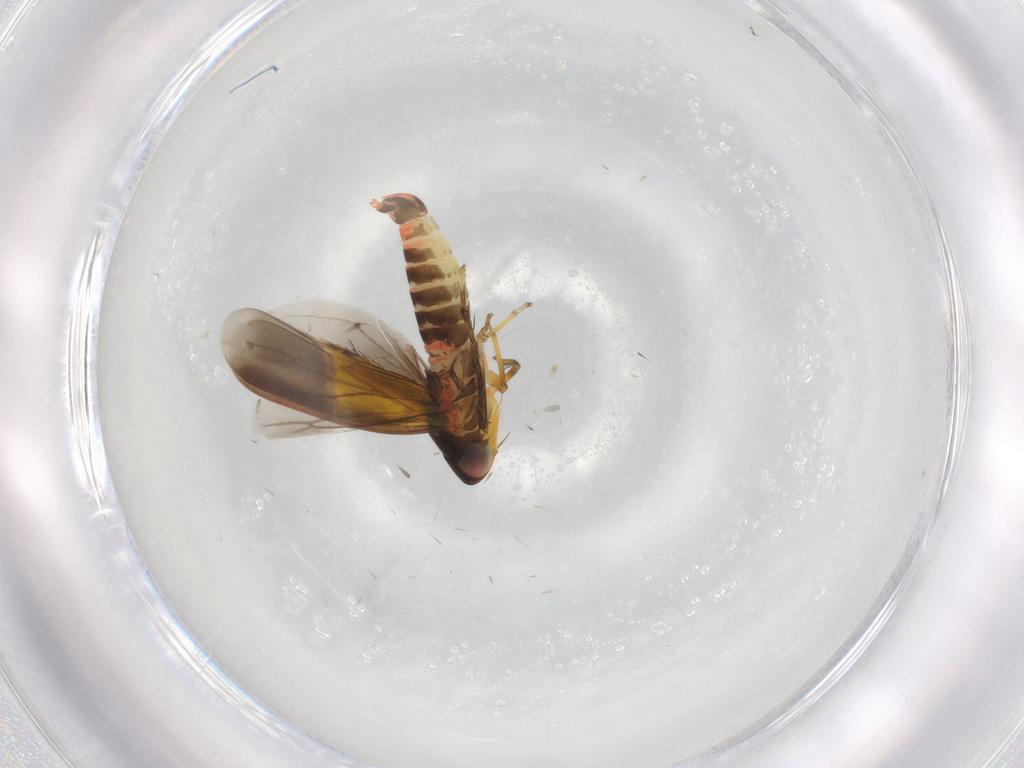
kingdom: Animalia
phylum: Arthropoda
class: Insecta
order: Hemiptera
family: Cicadellidae
